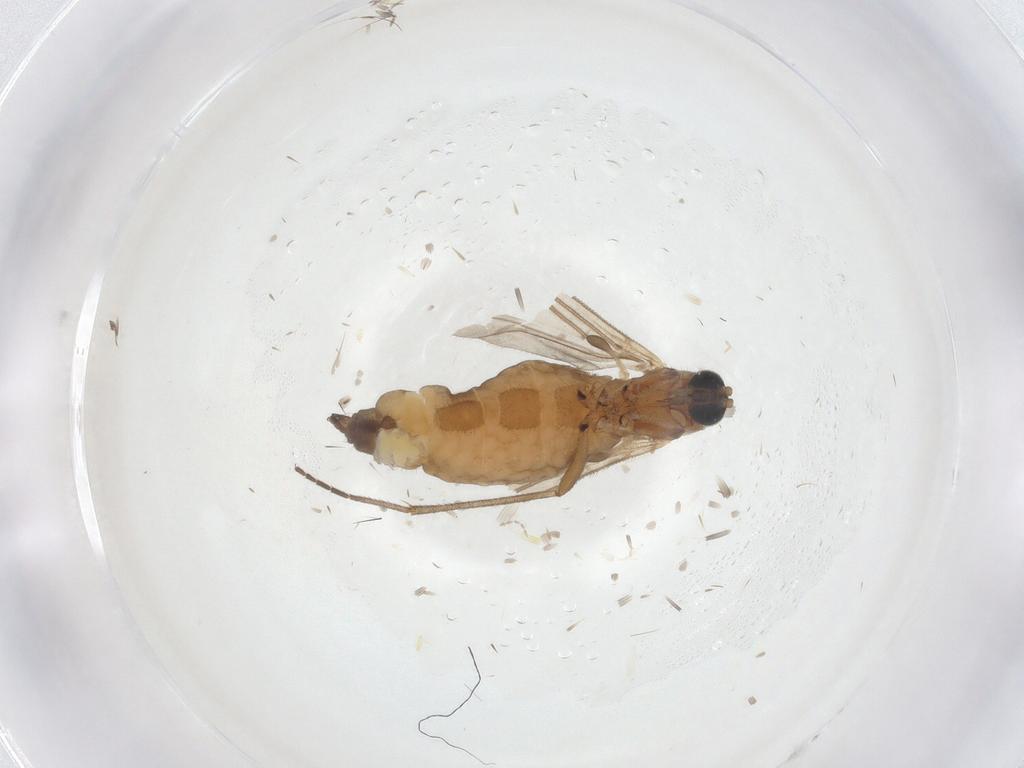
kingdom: Animalia
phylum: Arthropoda
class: Insecta
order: Diptera
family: Sciaridae
